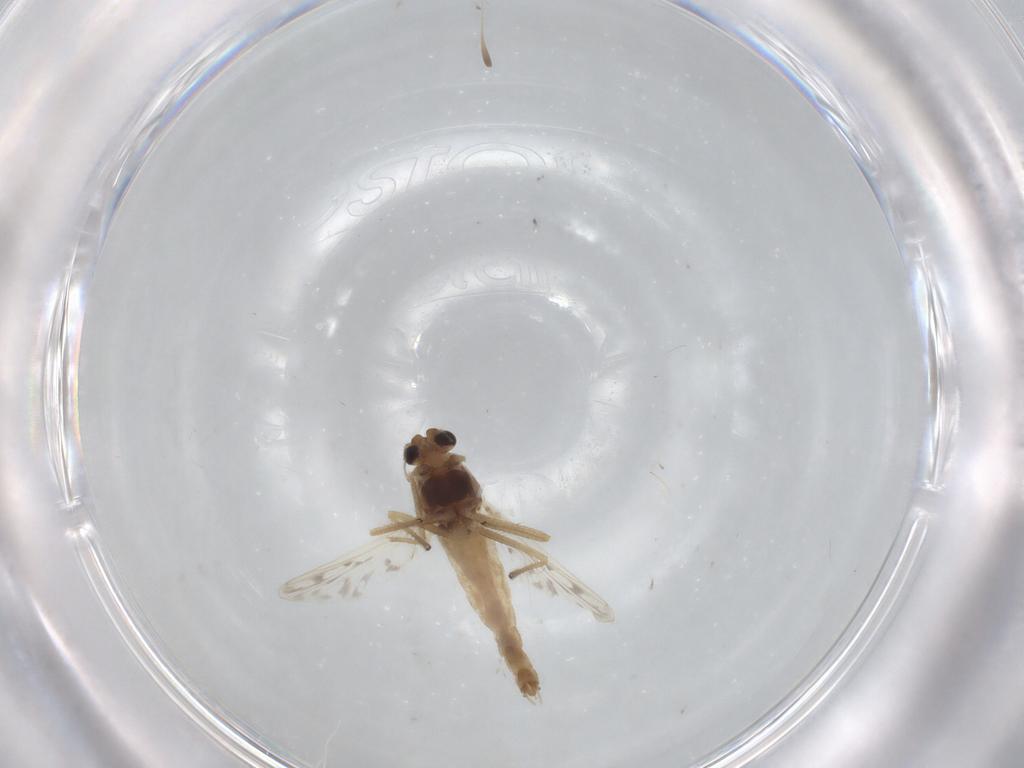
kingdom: Animalia
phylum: Arthropoda
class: Insecta
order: Diptera
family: Chironomidae
